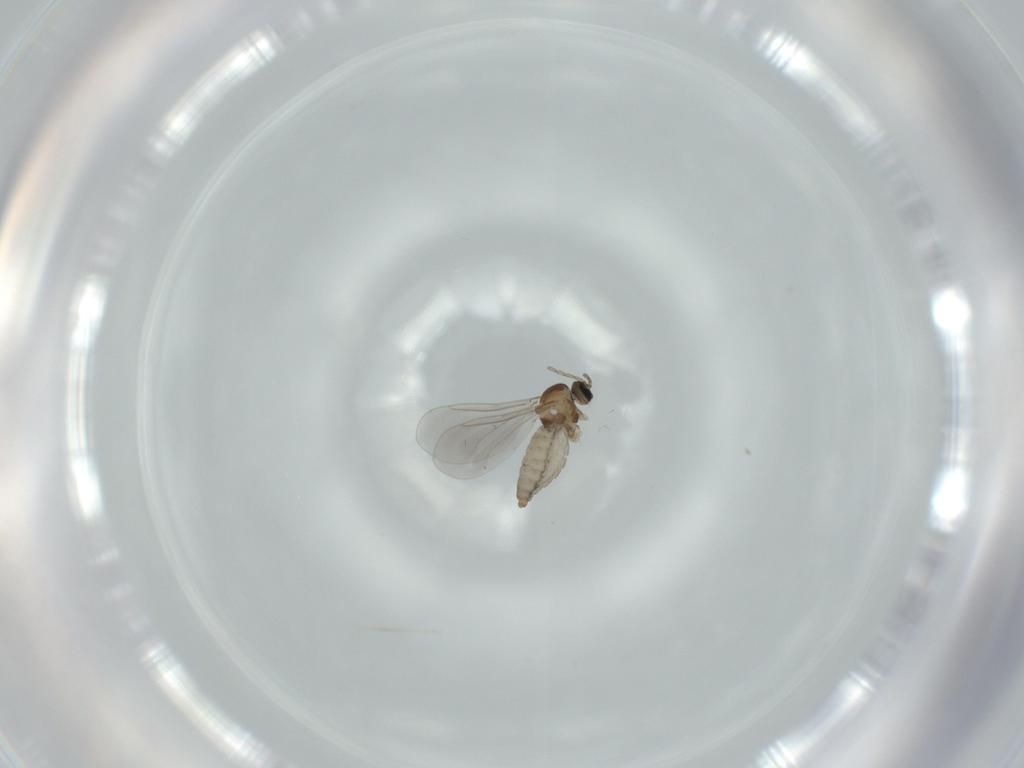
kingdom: Animalia
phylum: Arthropoda
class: Insecta
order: Diptera
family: Cecidomyiidae
